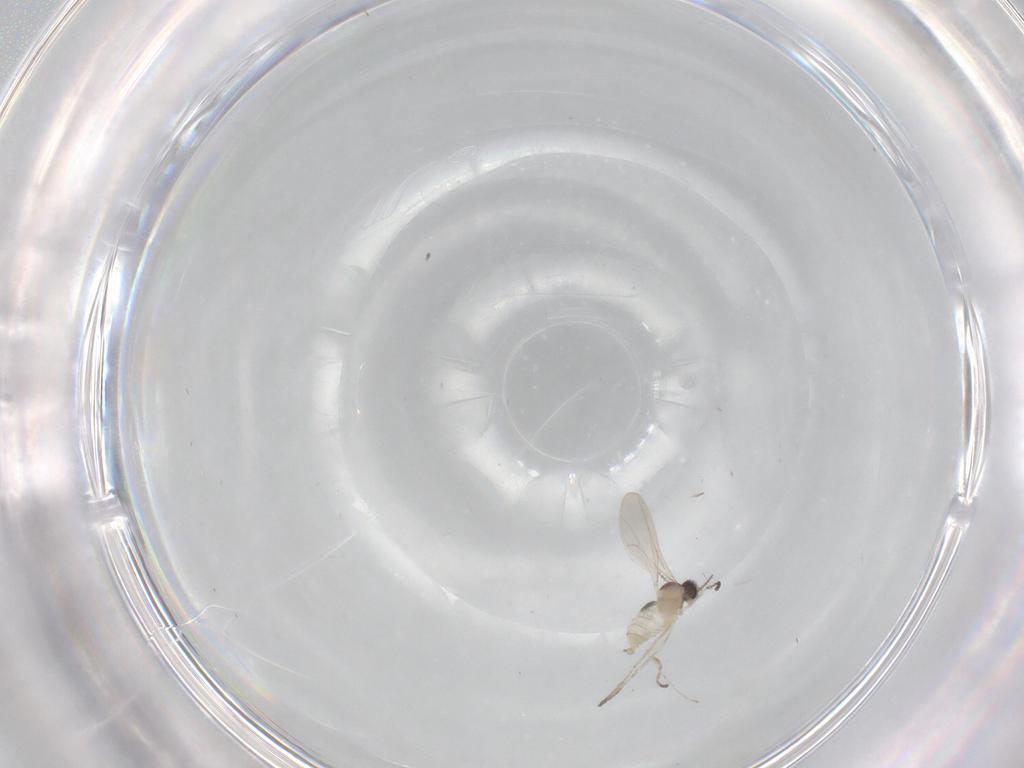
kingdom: Animalia
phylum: Arthropoda
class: Insecta
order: Diptera
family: Cecidomyiidae
